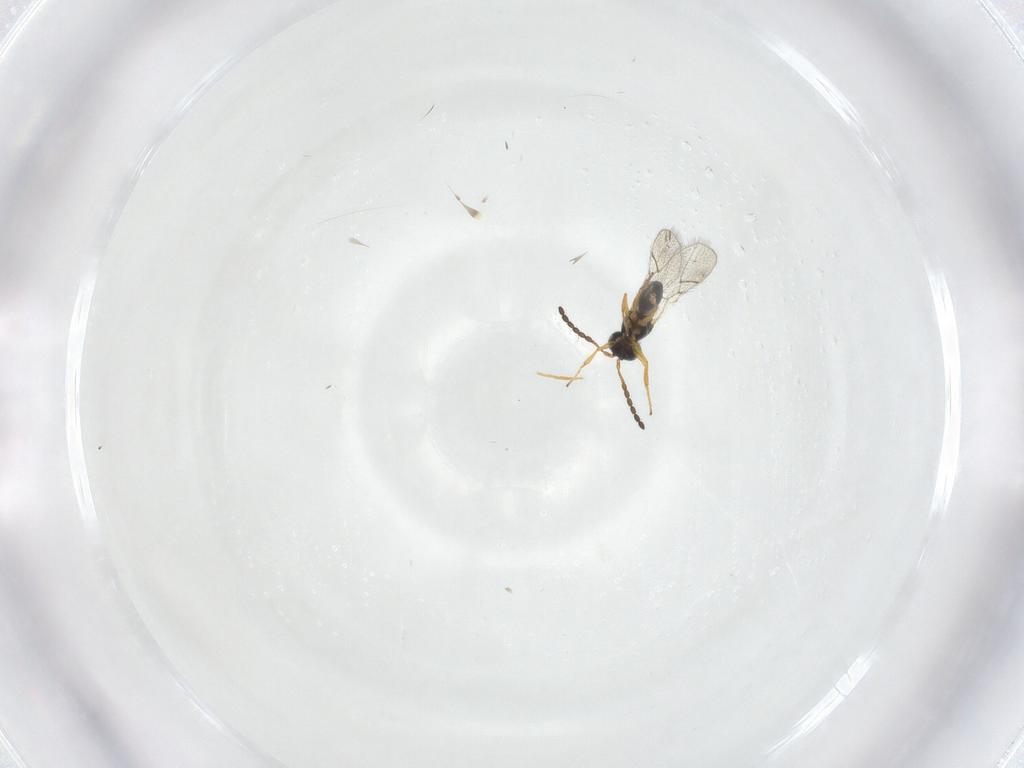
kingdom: Animalia
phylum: Arthropoda
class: Insecta
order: Hymenoptera
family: Figitidae
